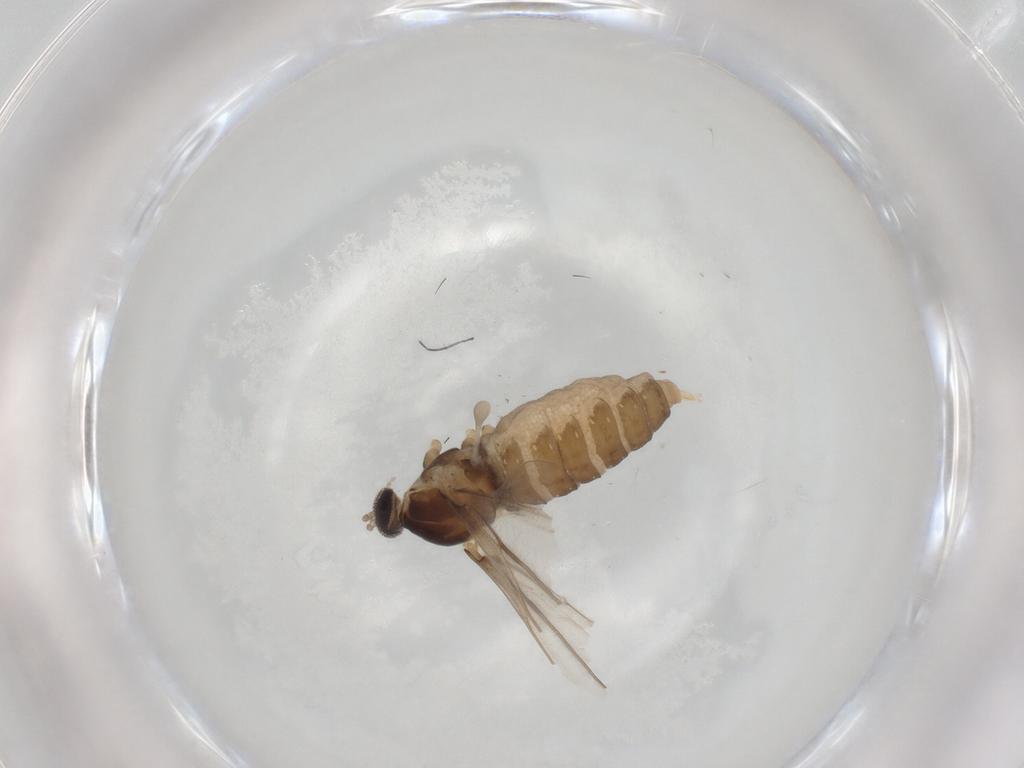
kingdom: Animalia
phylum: Arthropoda
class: Insecta
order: Diptera
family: Cecidomyiidae
